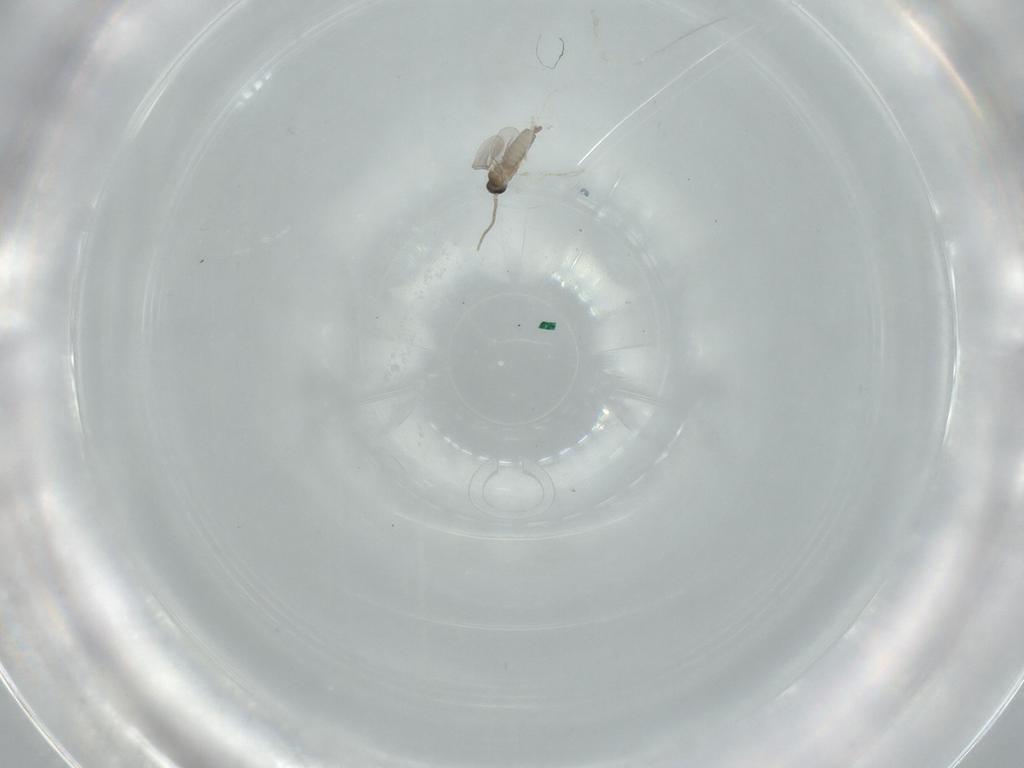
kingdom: Animalia
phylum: Arthropoda
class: Insecta
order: Diptera
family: Cecidomyiidae
